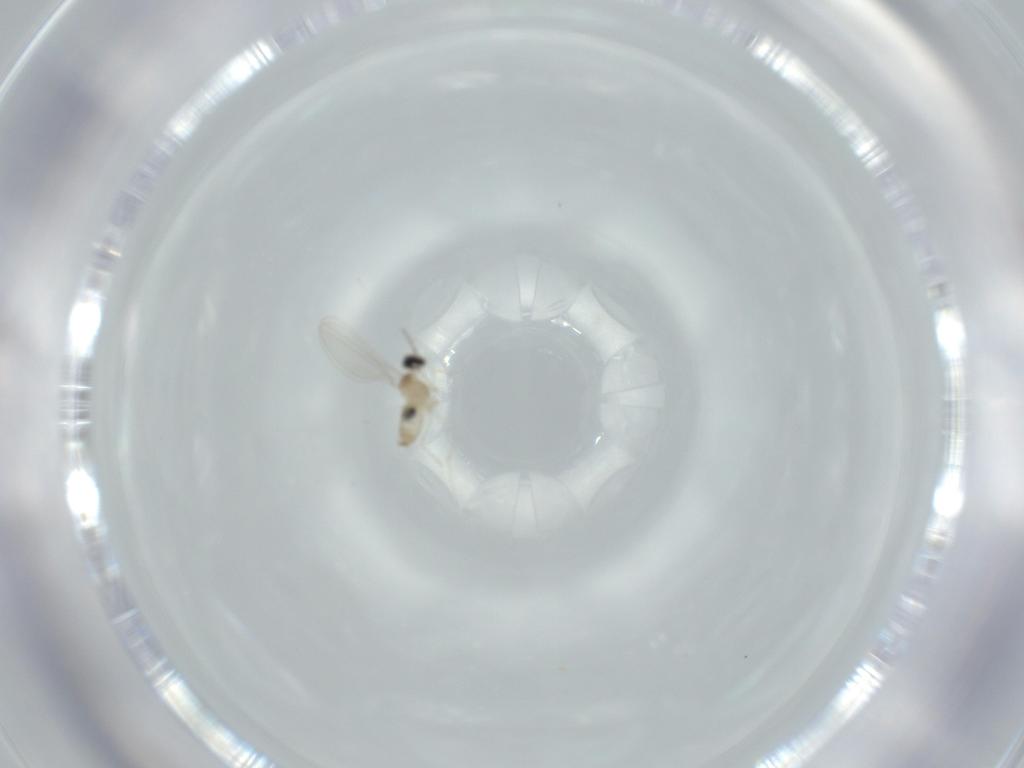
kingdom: Animalia
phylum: Arthropoda
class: Insecta
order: Diptera
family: Cecidomyiidae
